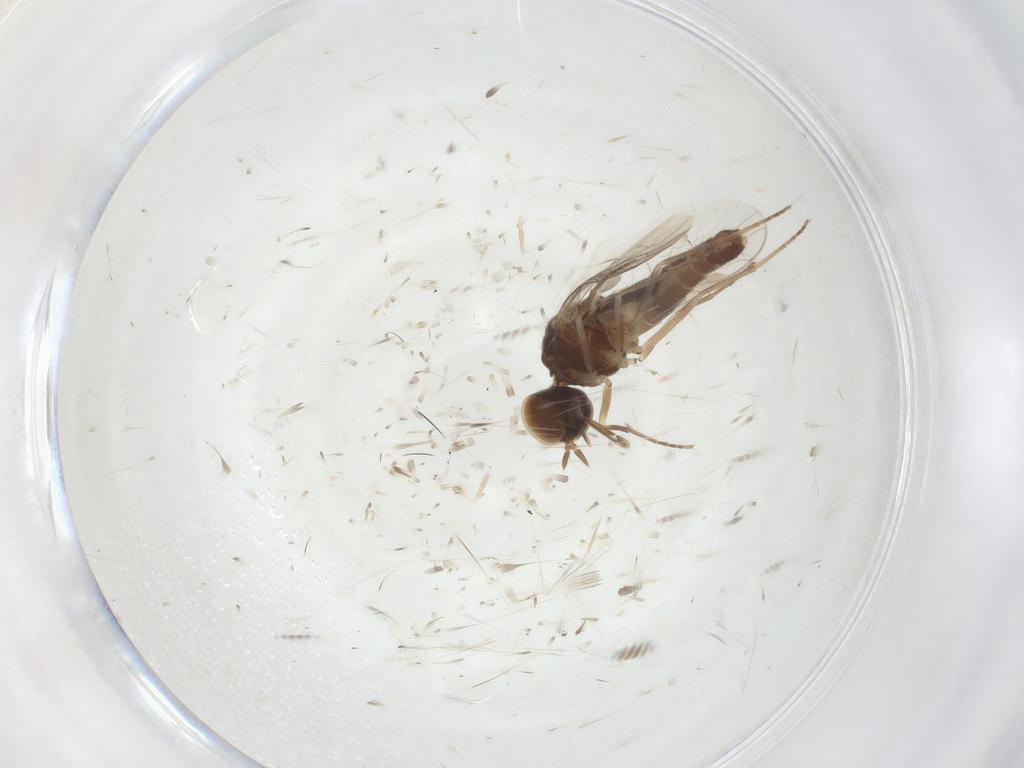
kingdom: Animalia
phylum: Arthropoda
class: Insecta
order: Diptera
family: Scenopinidae
